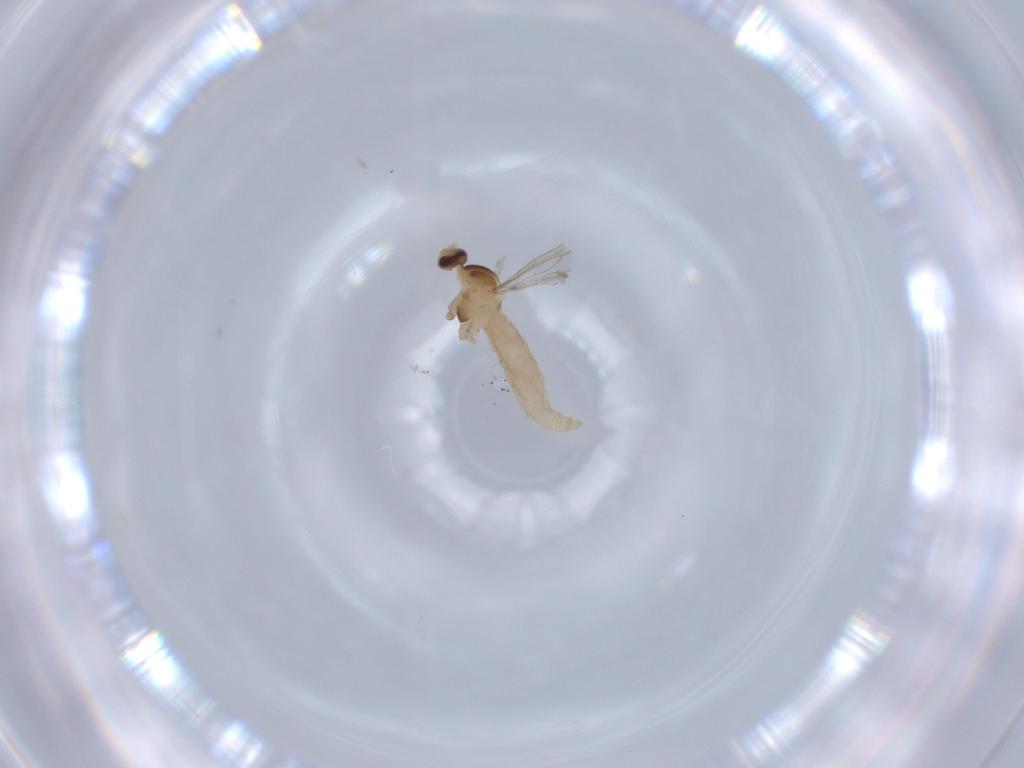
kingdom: Animalia
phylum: Arthropoda
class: Insecta
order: Diptera
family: Cecidomyiidae
